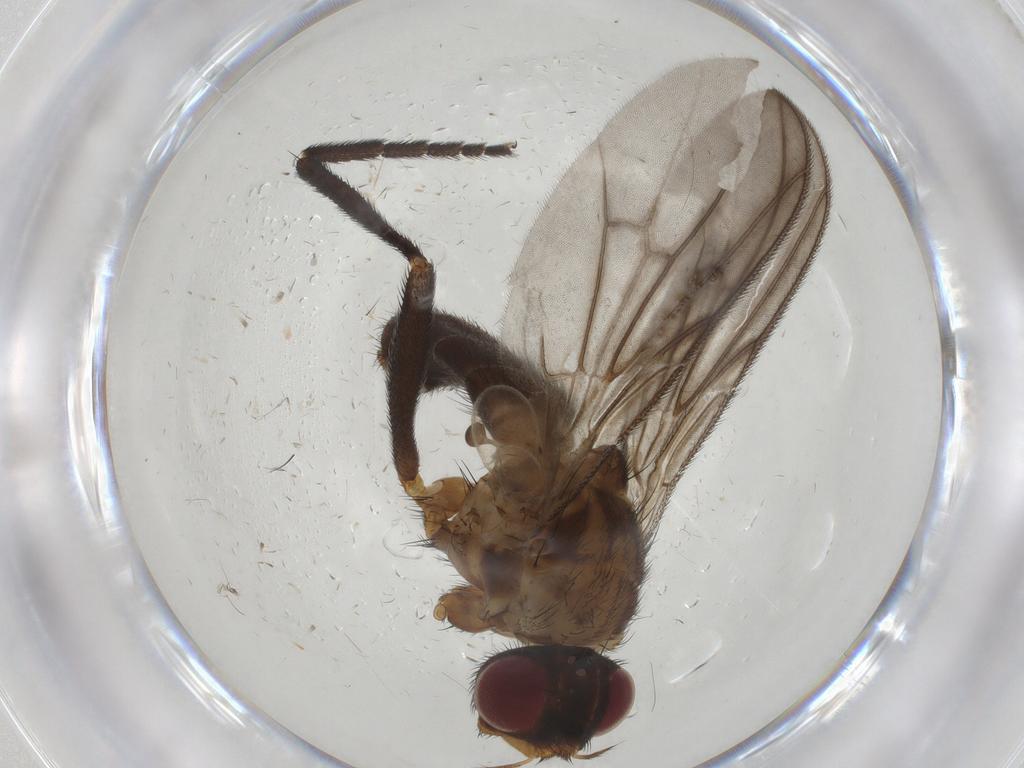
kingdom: Animalia
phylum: Arthropoda
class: Insecta
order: Diptera
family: Calliphoridae
